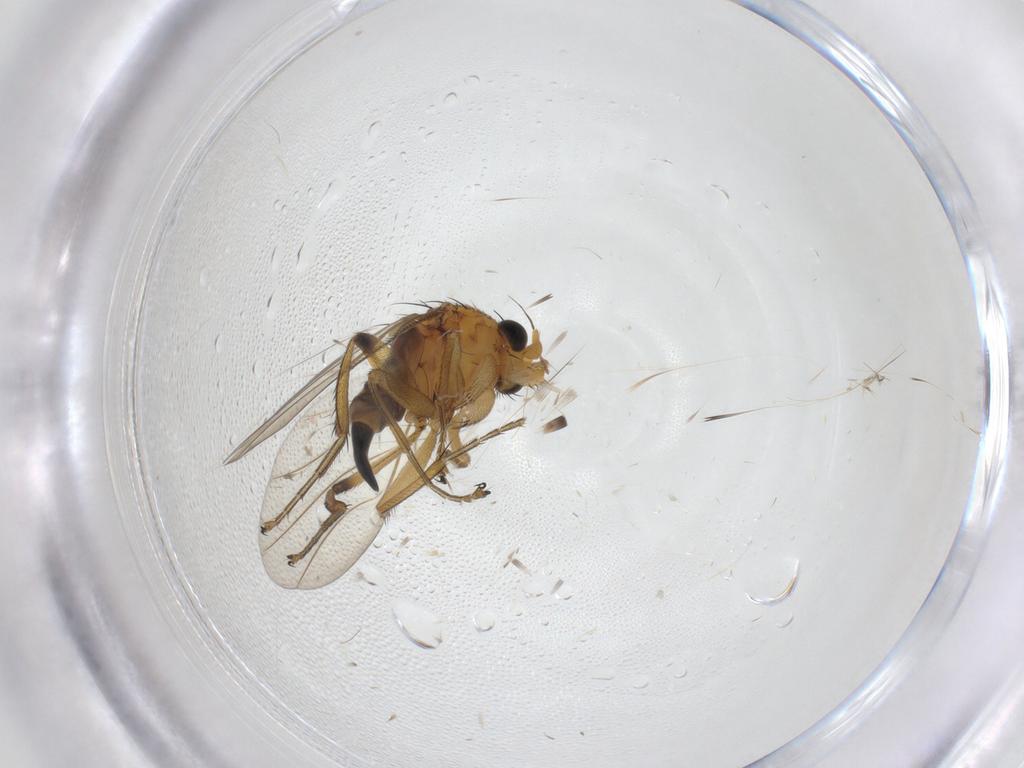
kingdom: Animalia
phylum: Arthropoda
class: Insecta
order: Diptera
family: Phoridae
